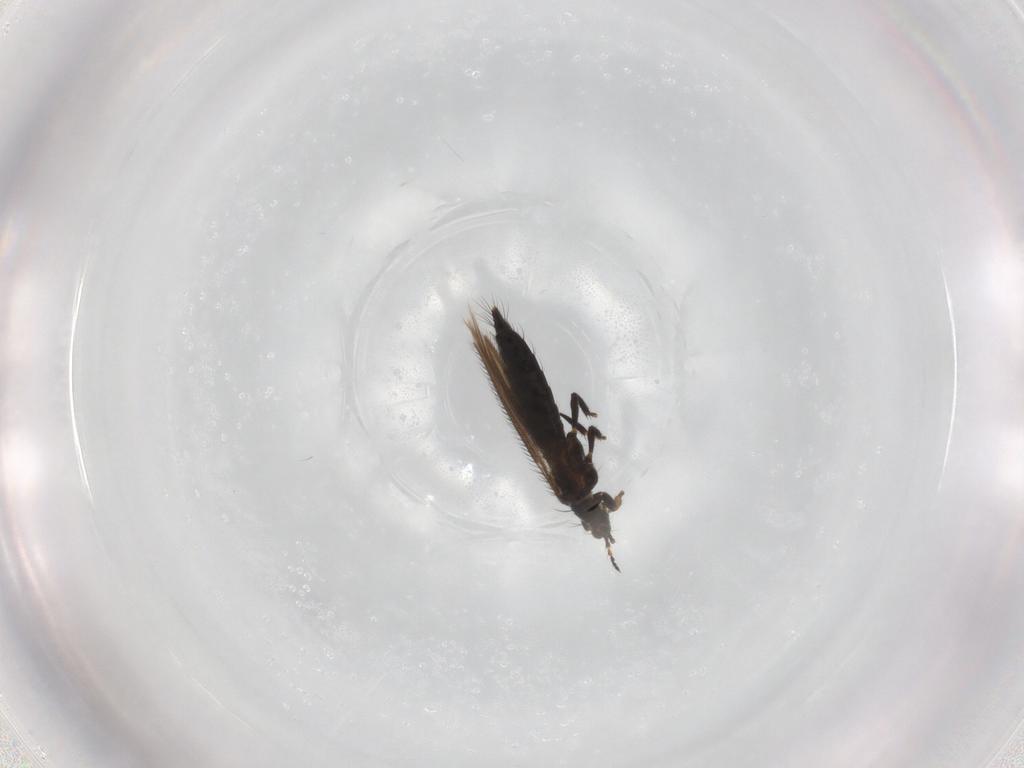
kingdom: Animalia
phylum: Arthropoda
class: Insecta
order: Thysanoptera
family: Thripidae
